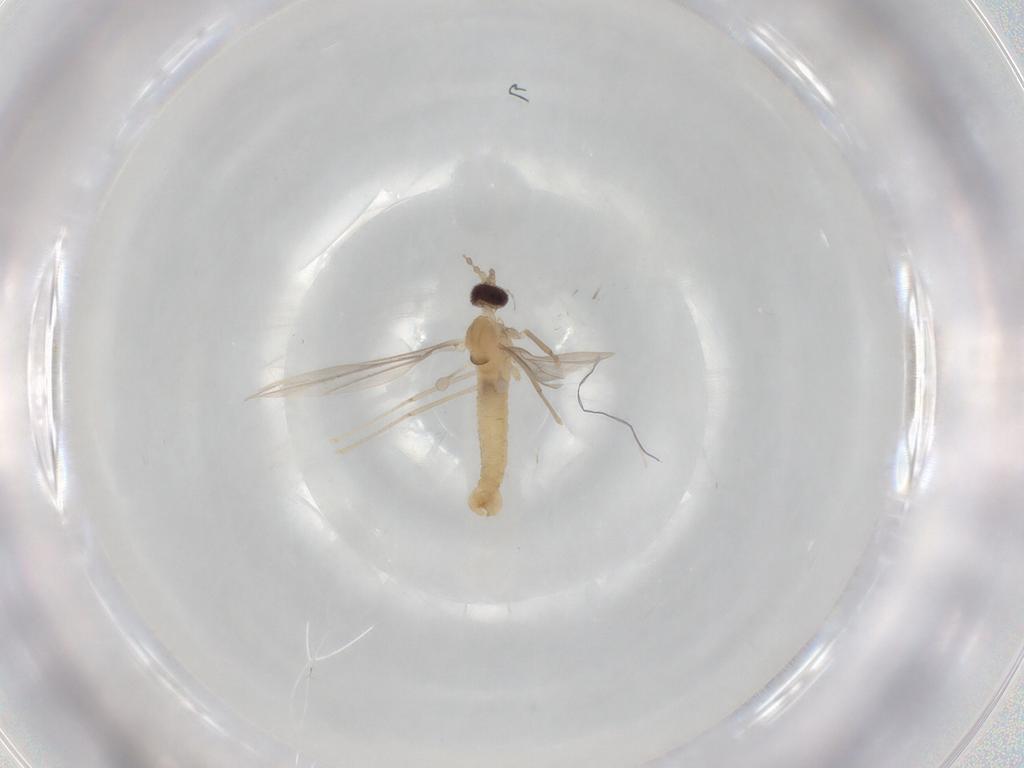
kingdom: Animalia
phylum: Arthropoda
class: Insecta
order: Diptera
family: Cecidomyiidae
